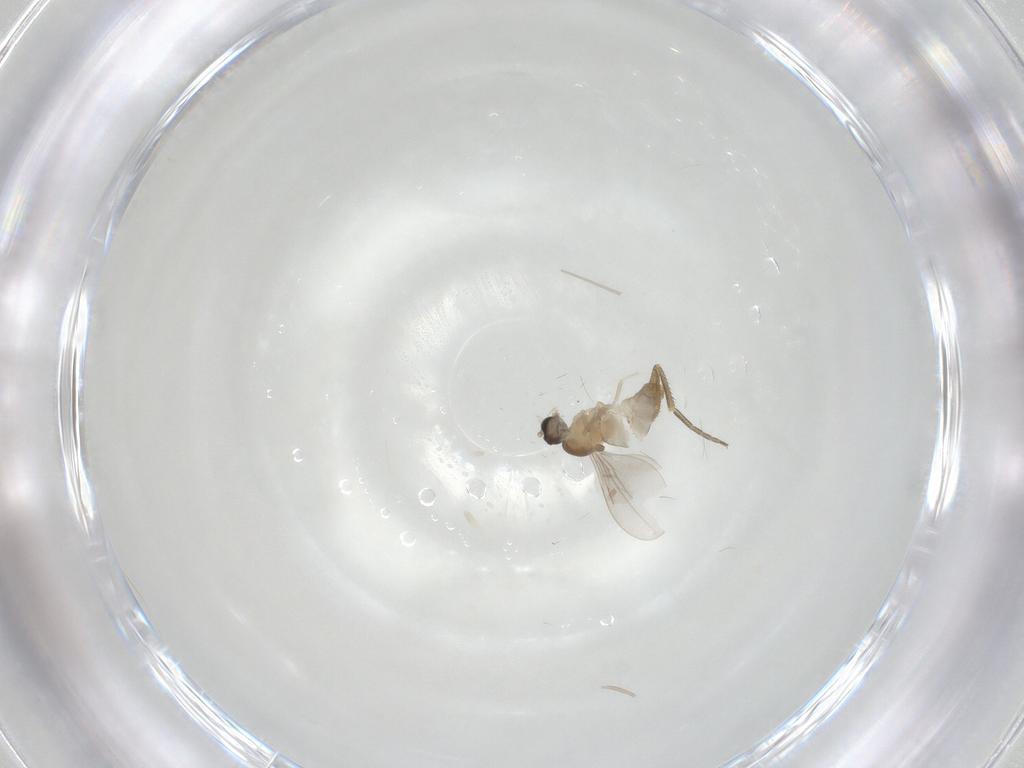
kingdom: Animalia
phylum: Arthropoda
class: Insecta
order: Diptera
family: Cecidomyiidae
